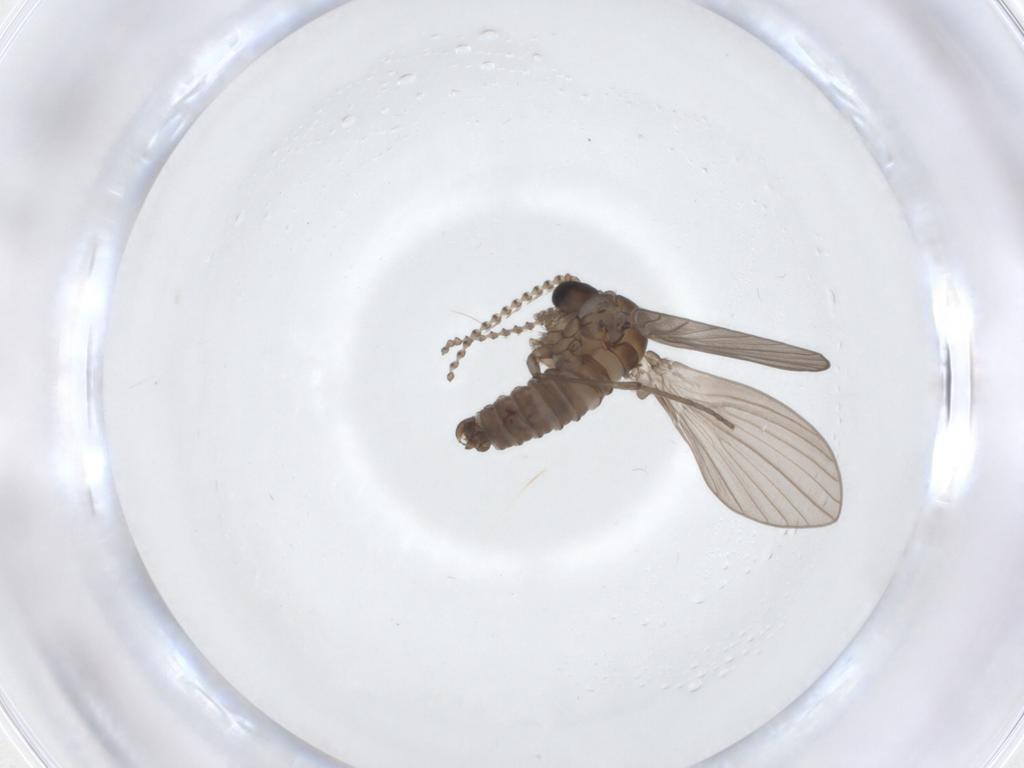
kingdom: Animalia
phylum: Arthropoda
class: Insecta
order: Diptera
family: Psychodidae
